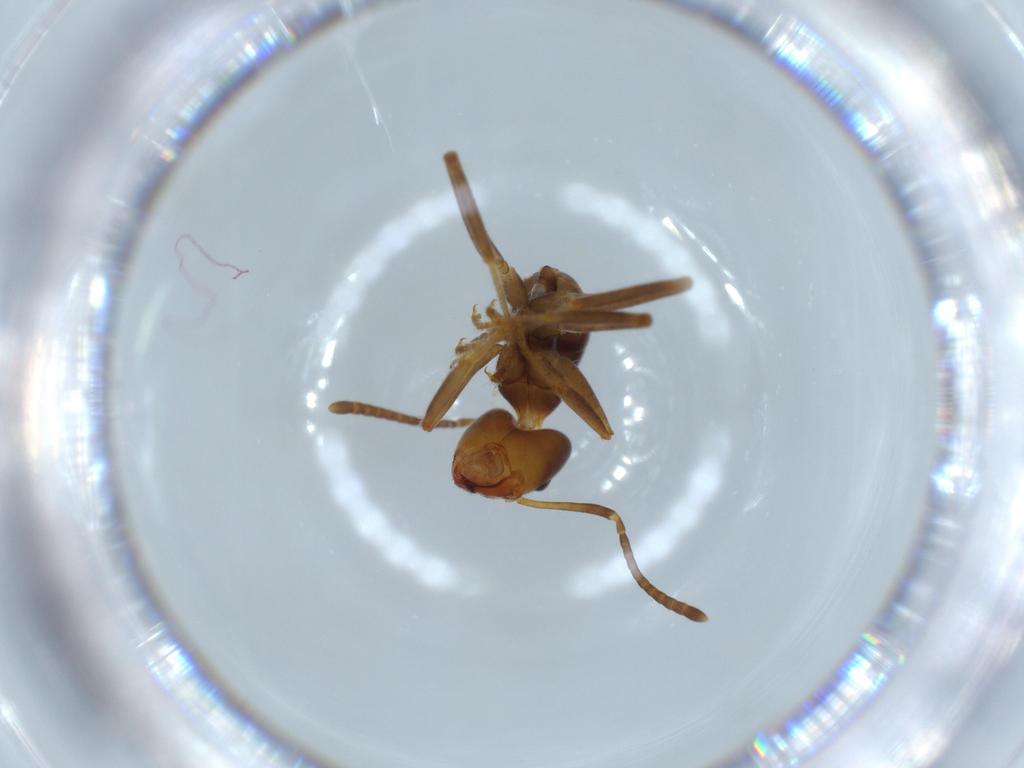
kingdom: Animalia
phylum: Arthropoda
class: Insecta
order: Hymenoptera
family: Formicidae
